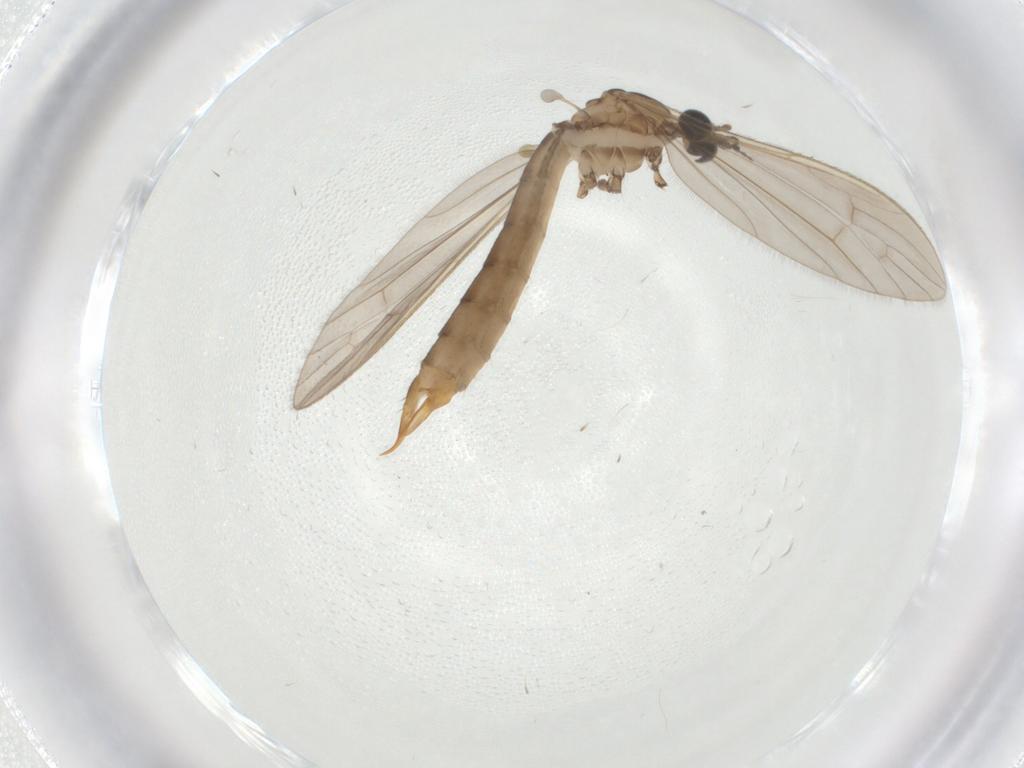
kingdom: Animalia
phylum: Arthropoda
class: Insecta
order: Diptera
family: Limoniidae
